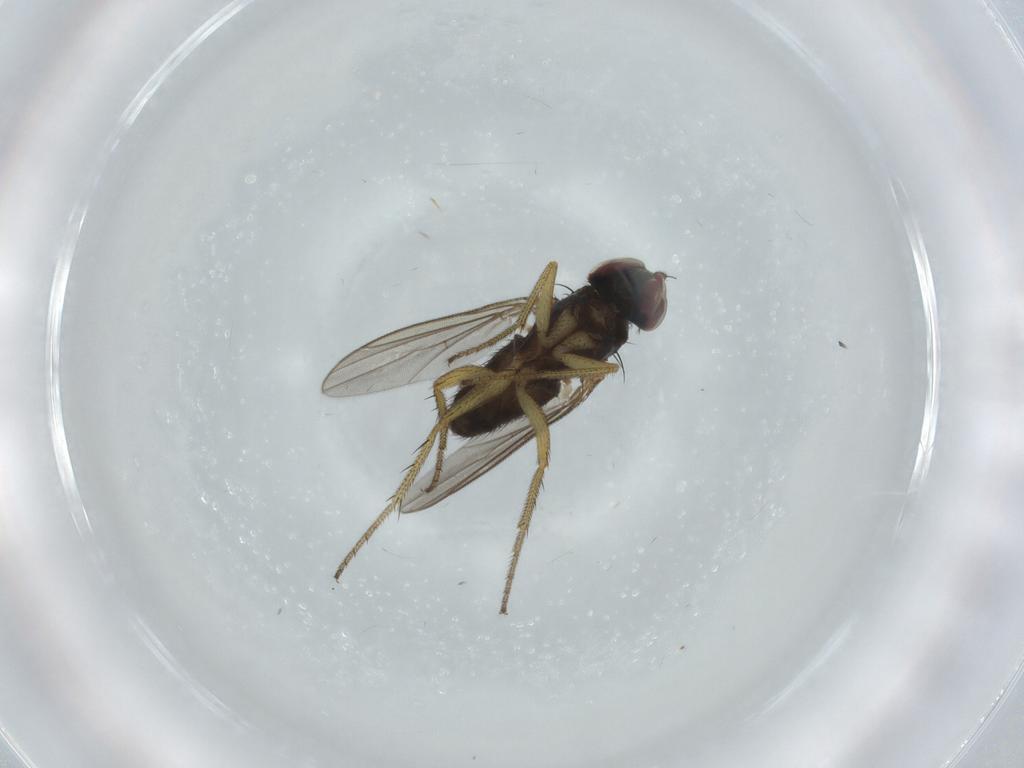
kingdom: Animalia
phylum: Arthropoda
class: Insecta
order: Diptera
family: Dolichopodidae
